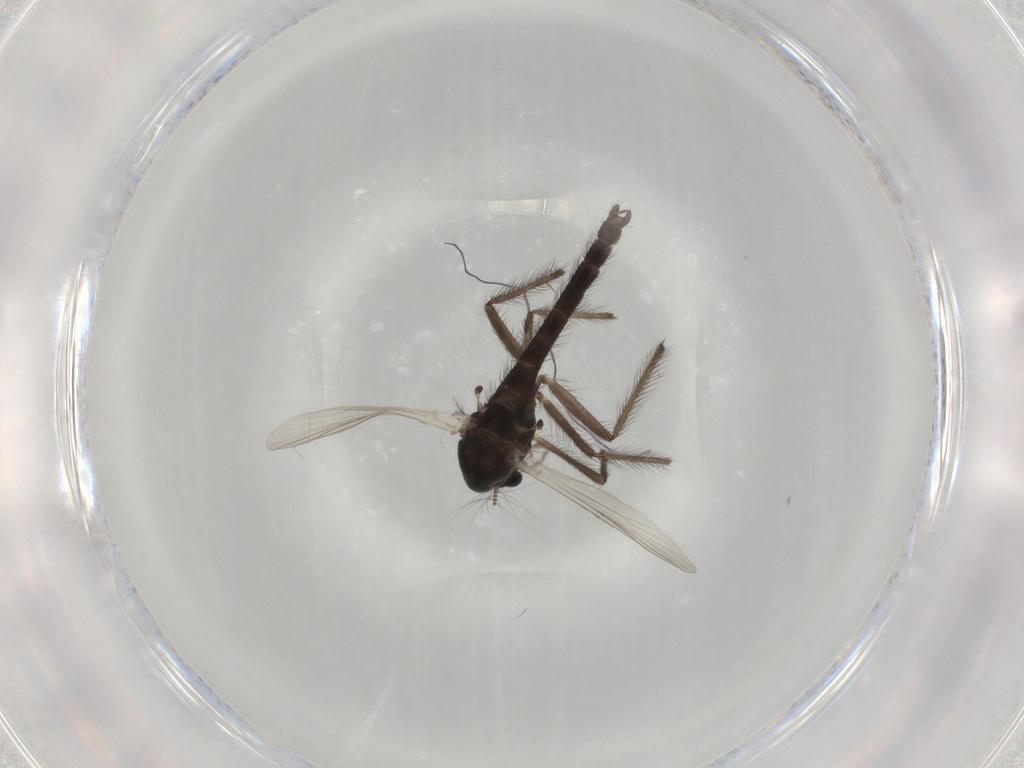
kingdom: Animalia
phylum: Arthropoda
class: Insecta
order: Diptera
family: Chironomidae
